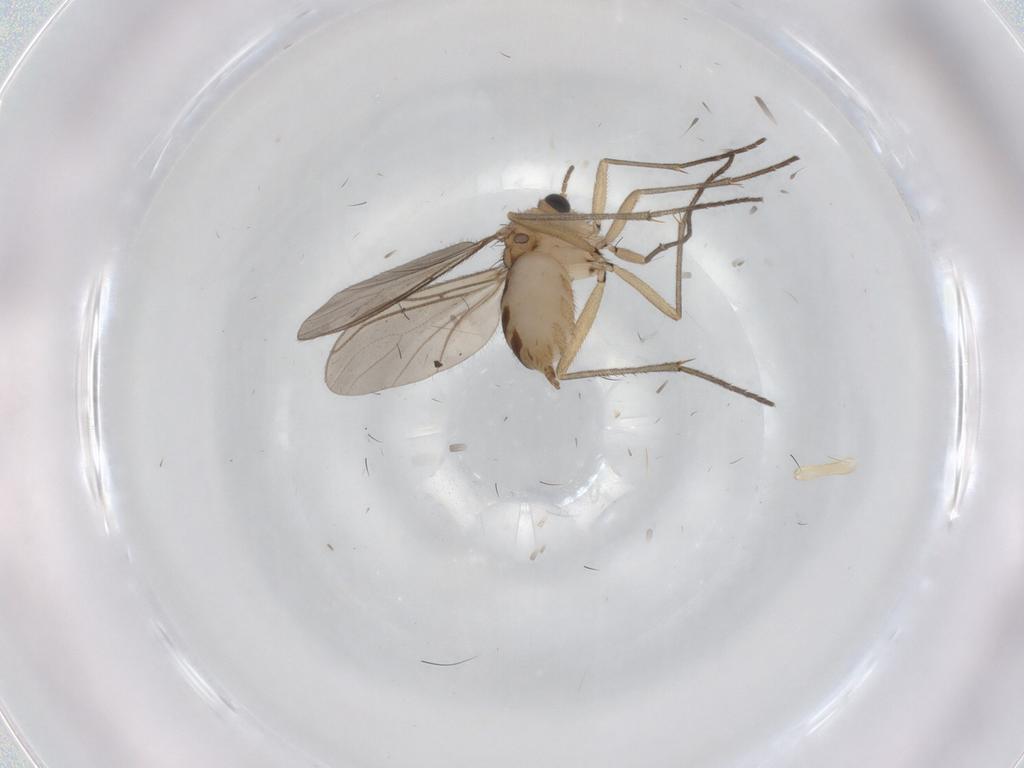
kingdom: Animalia
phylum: Arthropoda
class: Insecta
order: Diptera
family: Sciaridae
